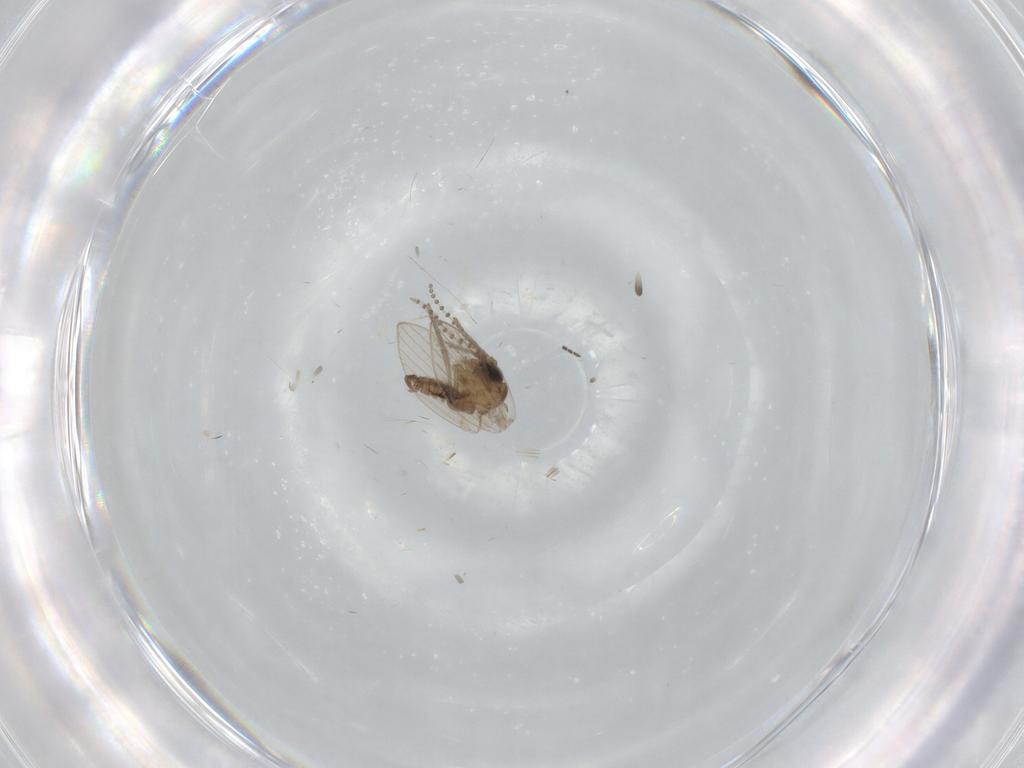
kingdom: Animalia
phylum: Arthropoda
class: Insecta
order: Diptera
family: Psychodidae
